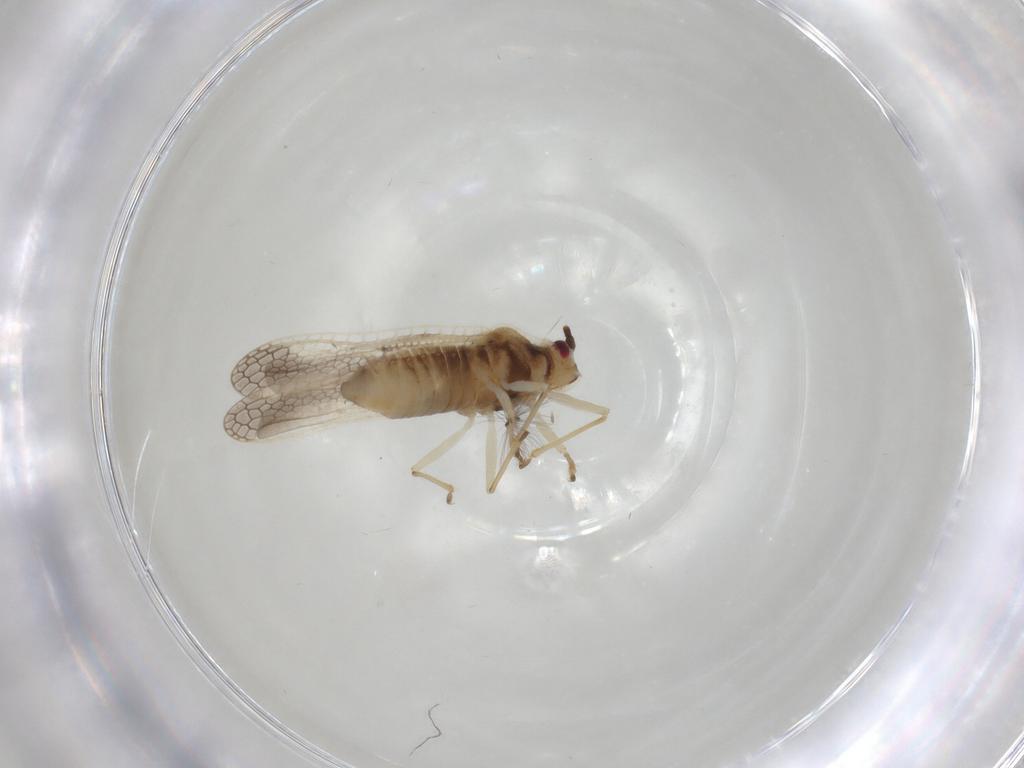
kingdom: Animalia
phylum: Arthropoda
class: Insecta
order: Hemiptera
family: Tingidae
